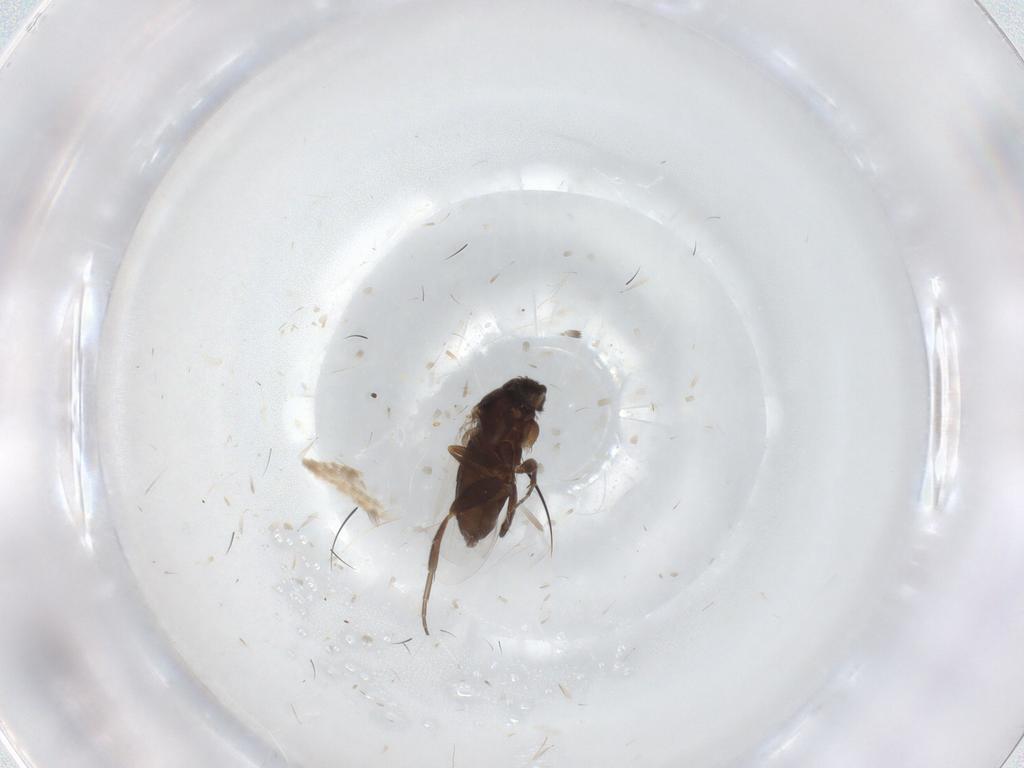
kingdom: Animalia
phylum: Arthropoda
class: Insecta
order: Diptera
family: Phoridae
